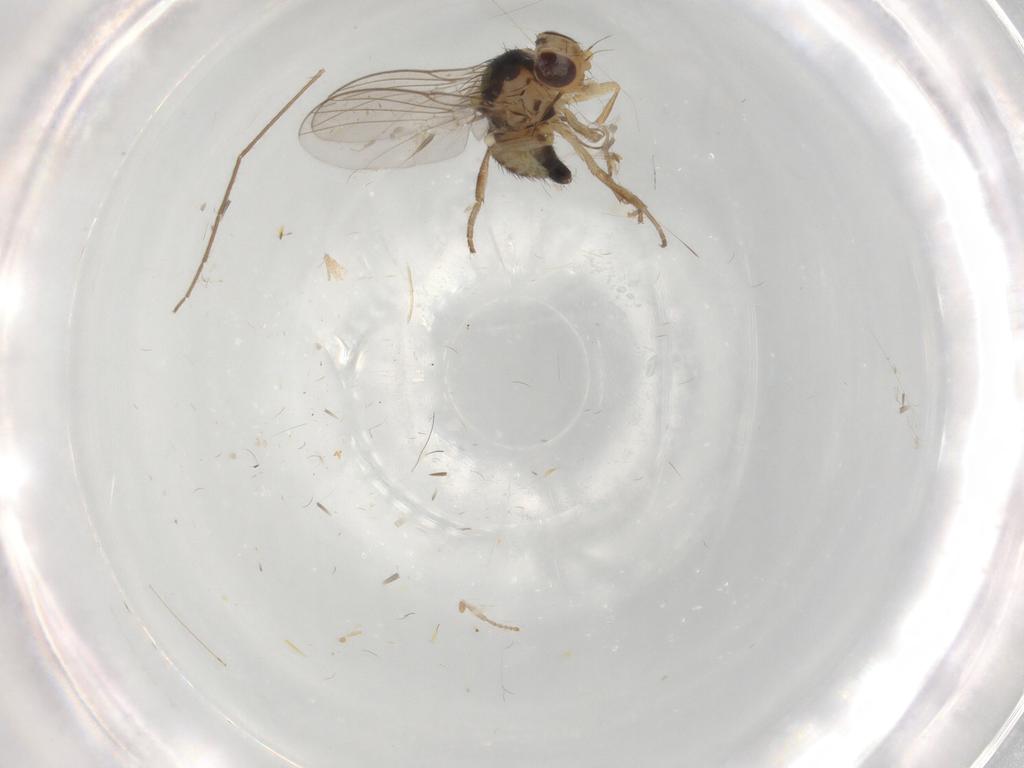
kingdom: Animalia
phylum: Arthropoda
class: Insecta
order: Diptera
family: Agromyzidae
